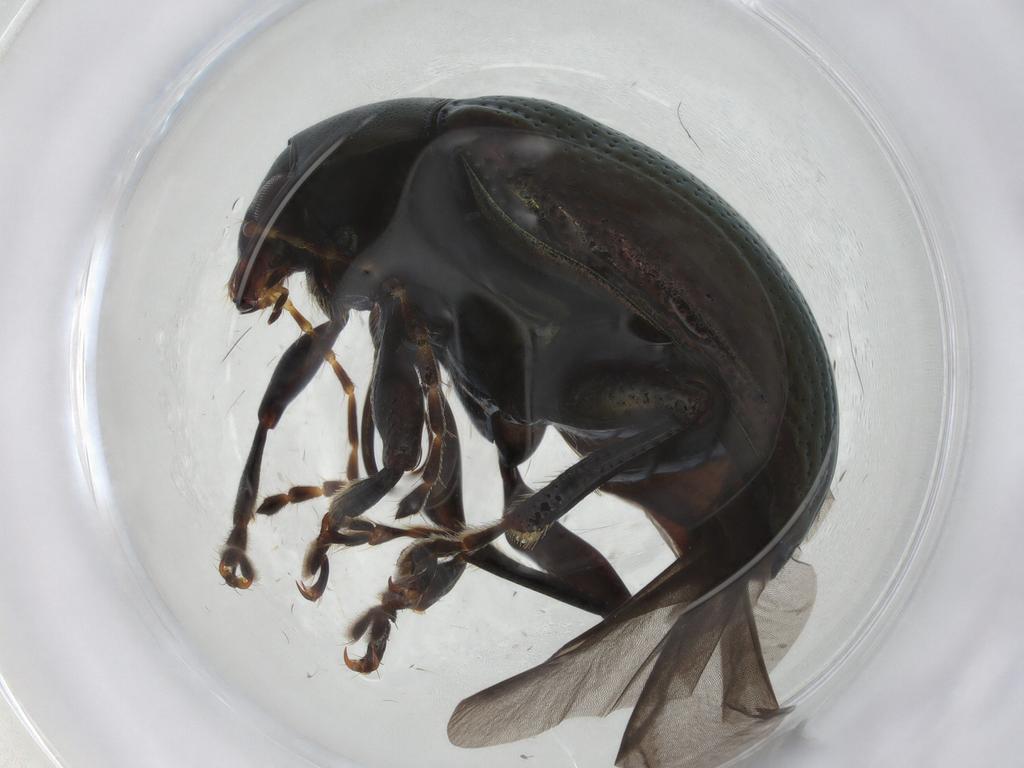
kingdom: Animalia
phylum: Arthropoda
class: Insecta
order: Coleoptera
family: Chrysomelidae
